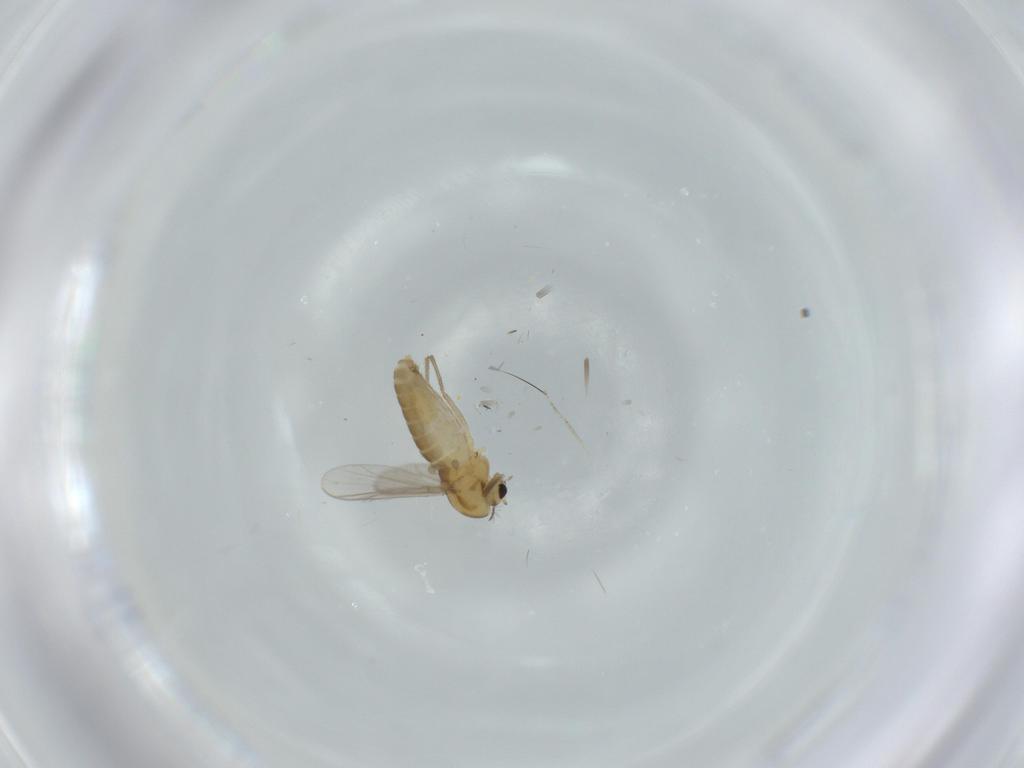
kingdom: Animalia
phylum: Arthropoda
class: Insecta
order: Diptera
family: Chironomidae
